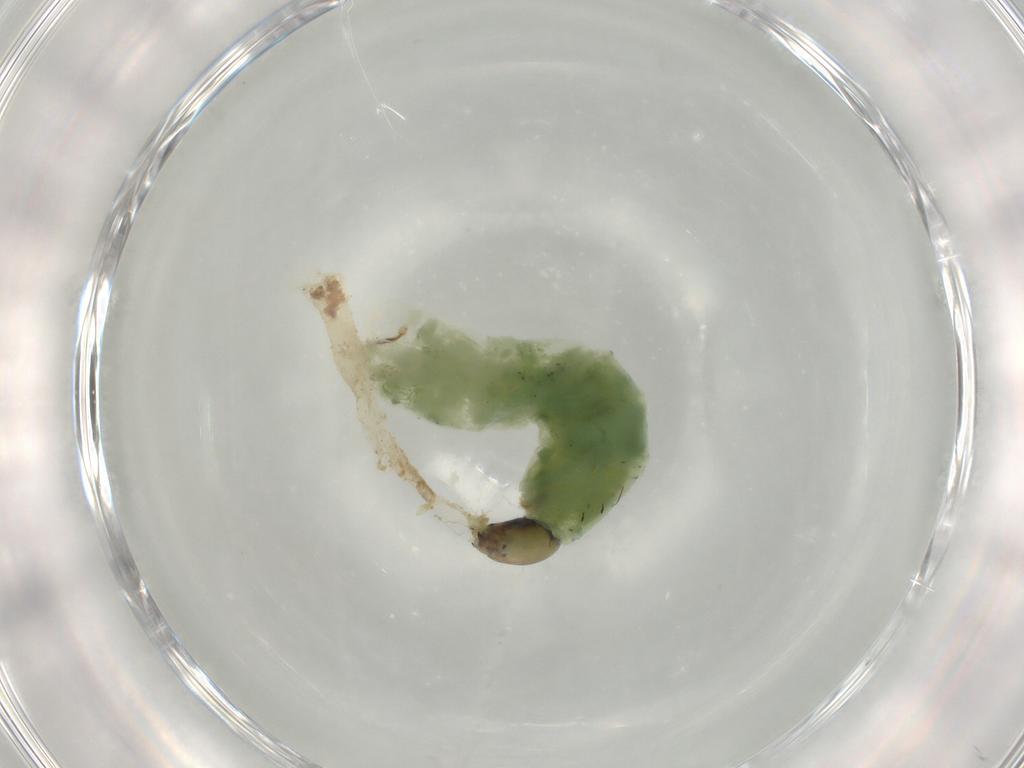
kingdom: Animalia
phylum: Arthropoda
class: Insecta
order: Diptera
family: Chironomidae
